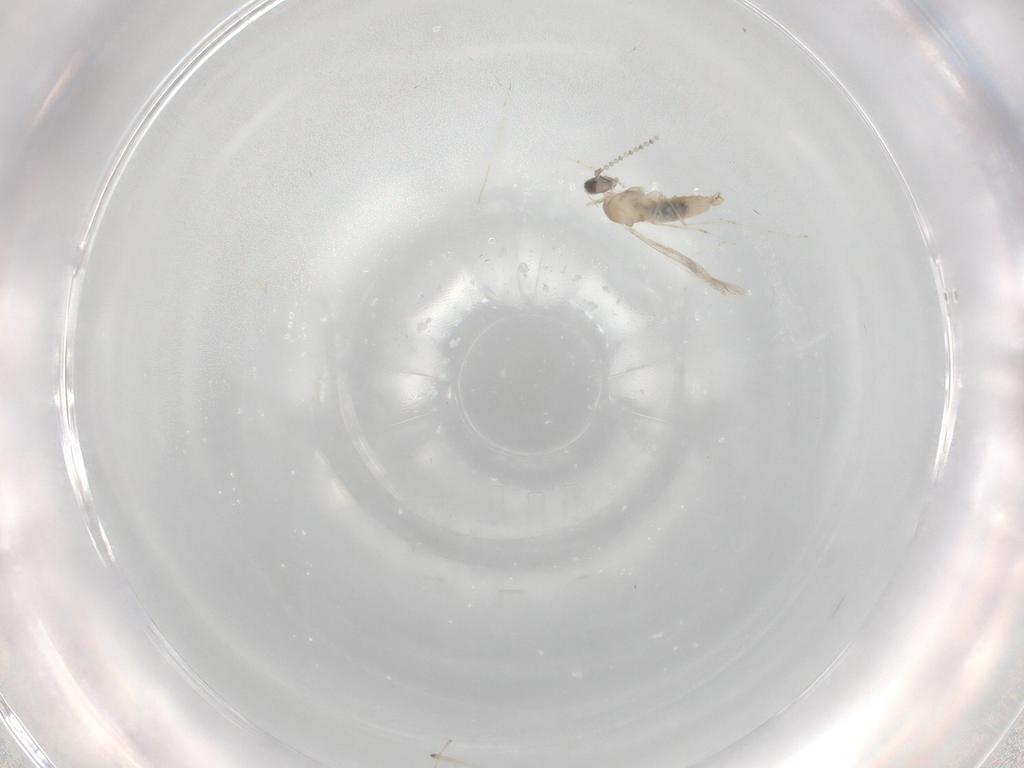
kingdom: Animalia
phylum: Arthropoda
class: Insecta
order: Diptera
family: Cecidomyiidae
